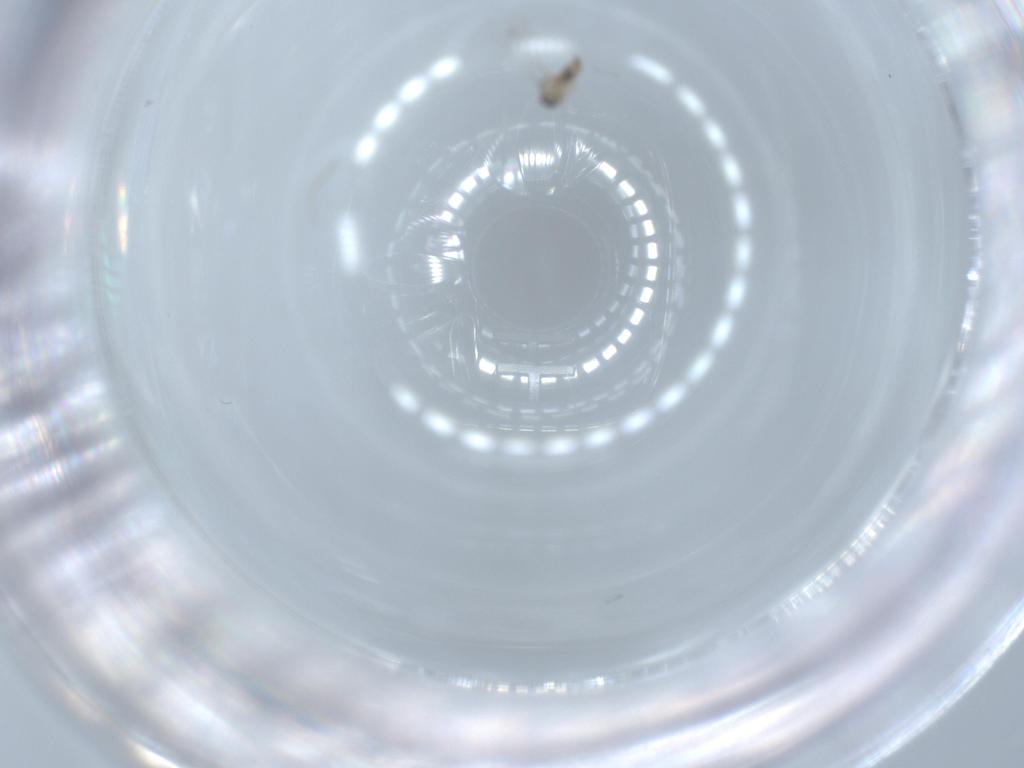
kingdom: Animalia
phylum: Arthropoda
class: Insecta
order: Diptera
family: Cecidomyiidae
